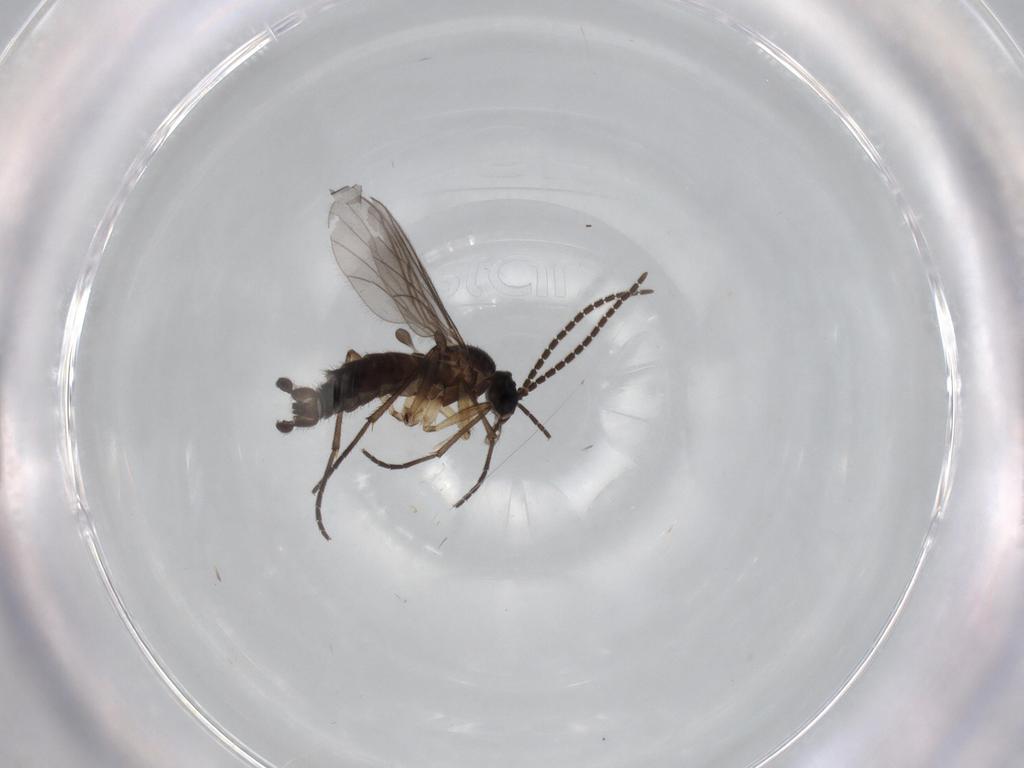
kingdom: Animalia
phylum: Arthropoda
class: Insecta
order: Diptera
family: Sciaridae
